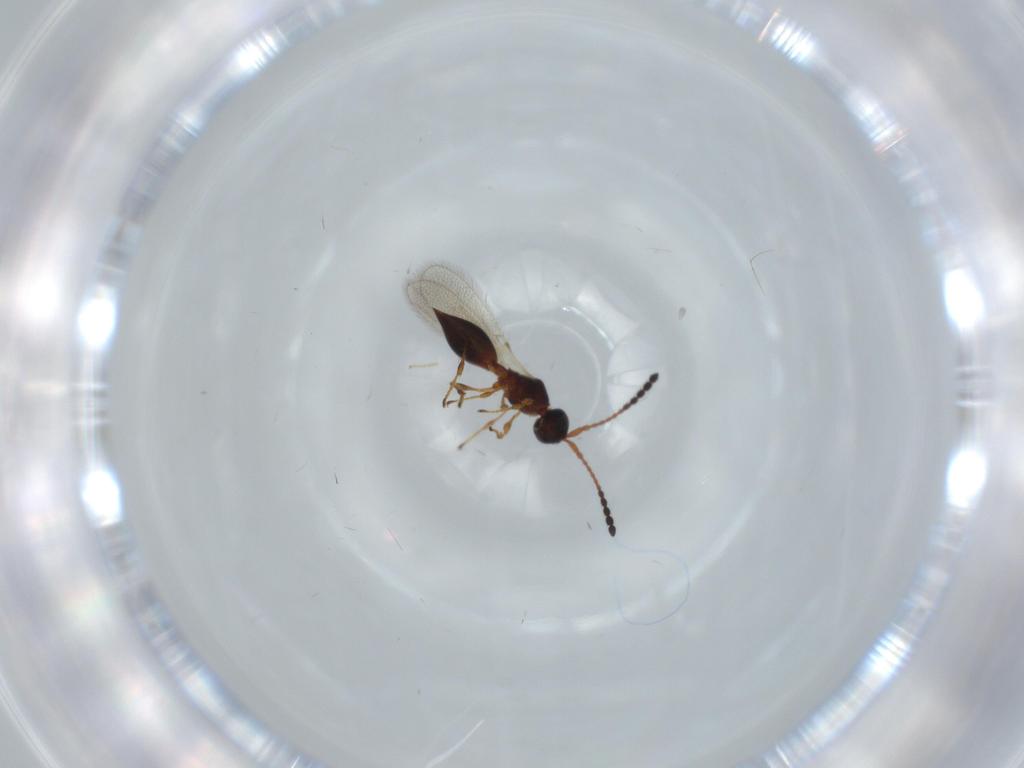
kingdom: Animalia
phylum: Arthropoda
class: Insecta
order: Hymenoptera
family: Diapriidae
